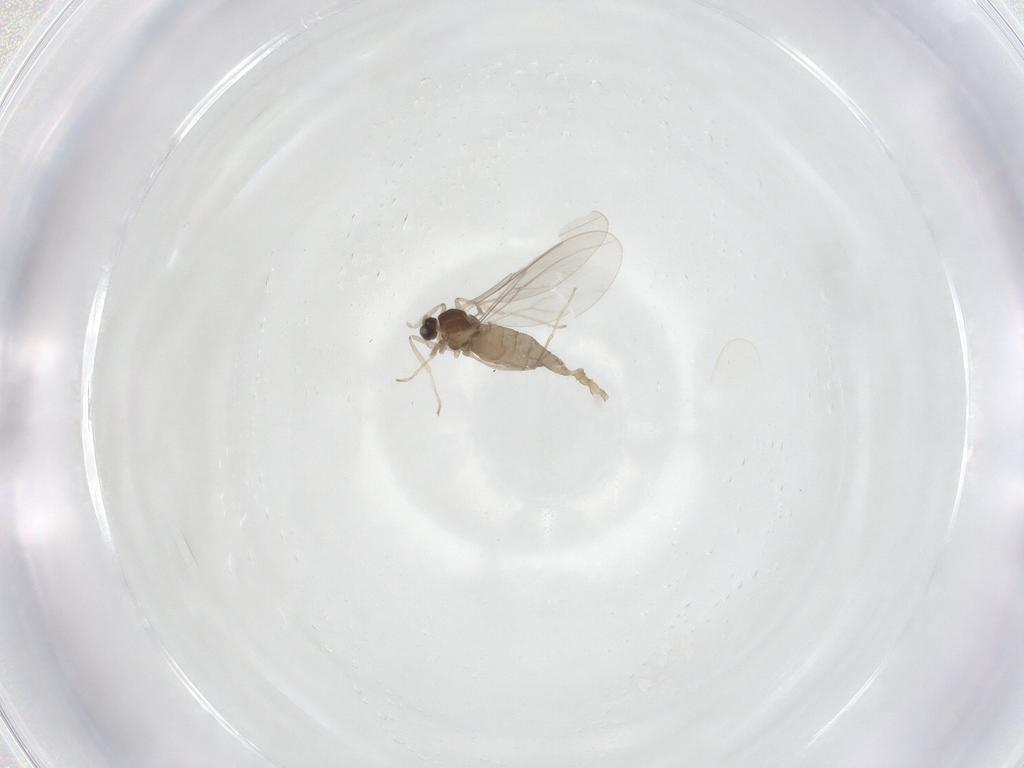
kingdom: Animalia
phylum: Arthropoda
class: Insecta
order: Diptera
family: Cecidomyiidae
